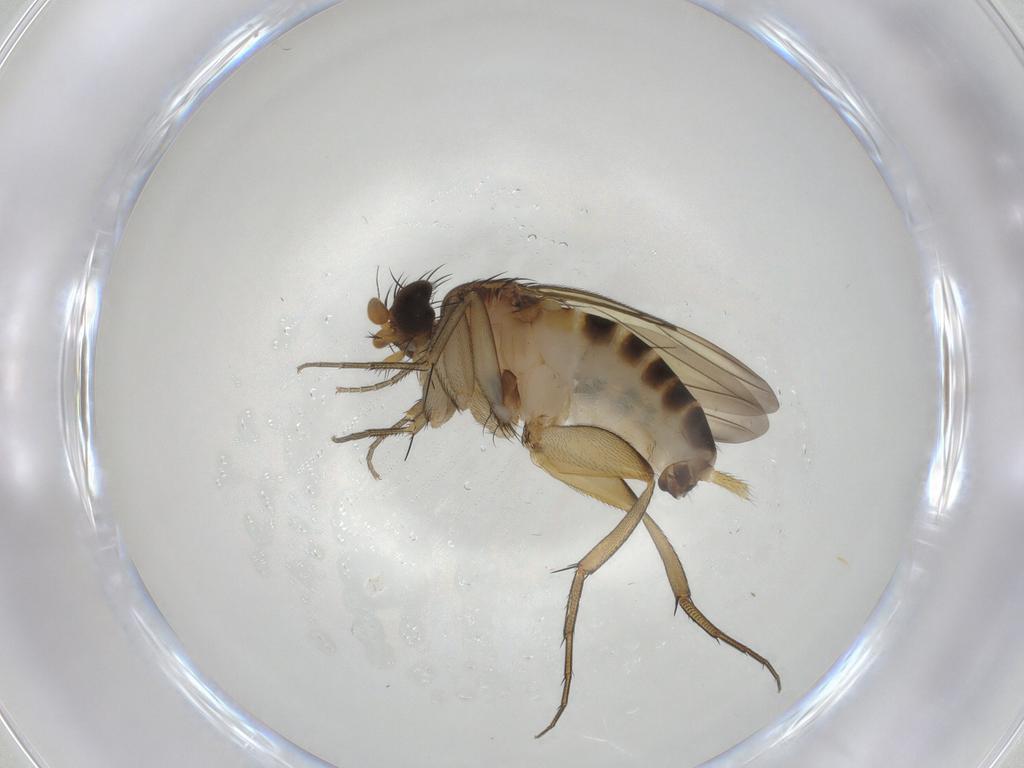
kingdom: Animalia
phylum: Arthropoda
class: Insecta
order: Diptera
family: Phoridae
